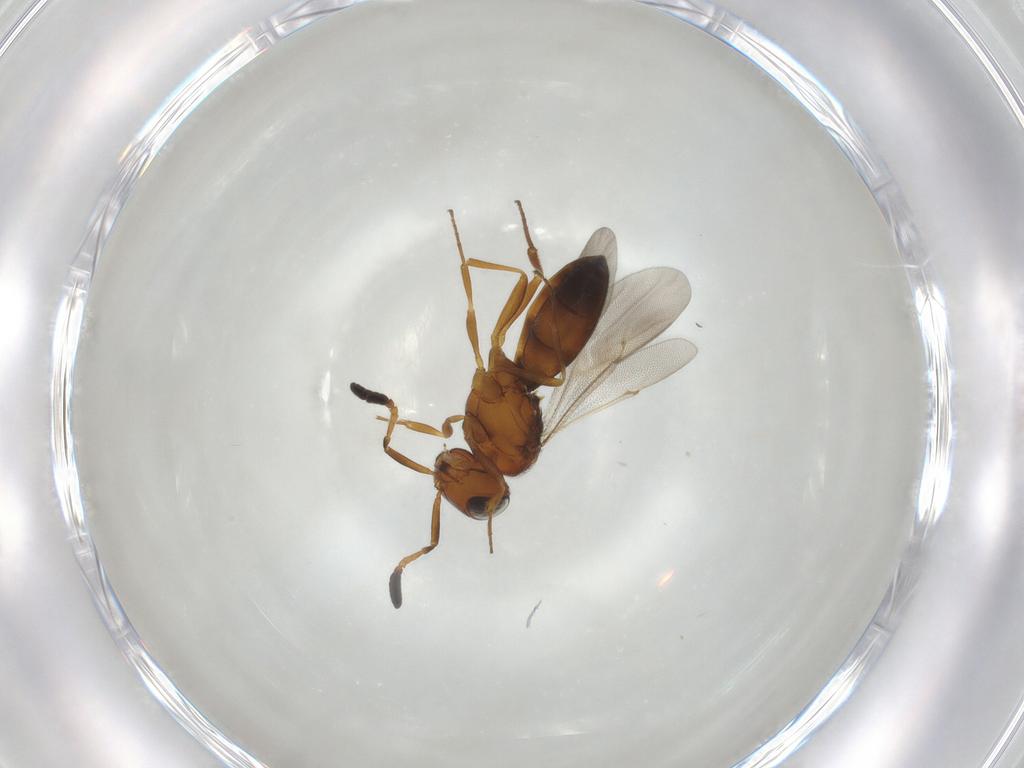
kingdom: Animalia
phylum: Arthropoda
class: Insecta
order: Hymenoptera
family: Scelionidae
